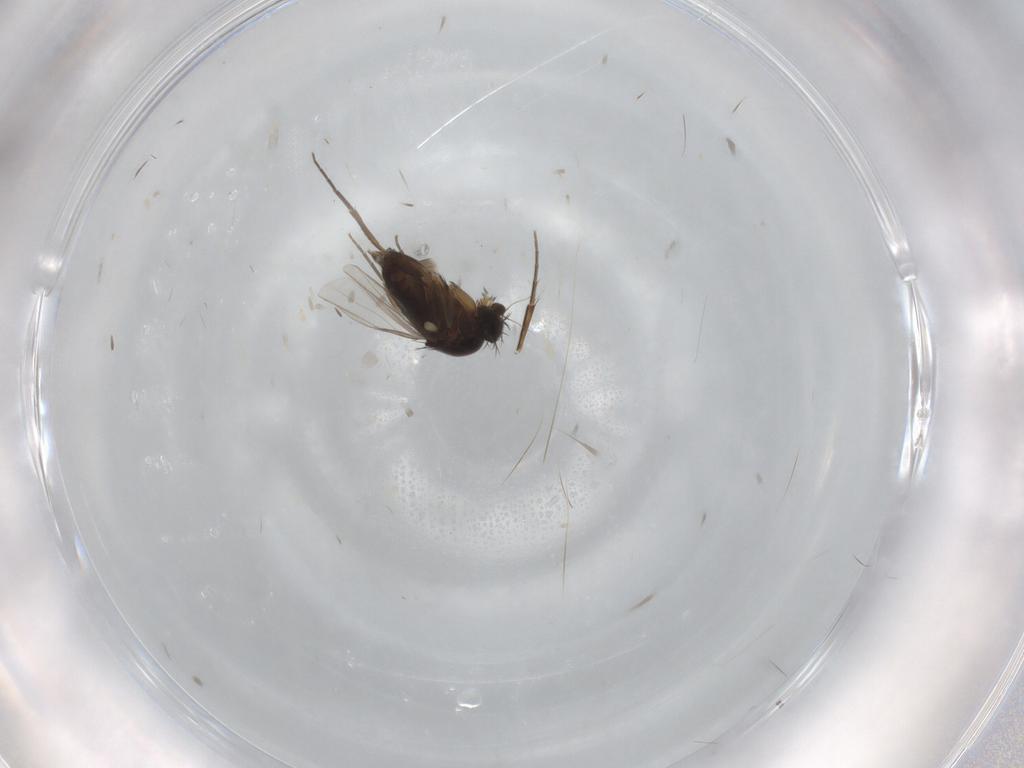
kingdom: Animalia
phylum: Arthropoda
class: Insecta
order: Diptera
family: Phoridae
